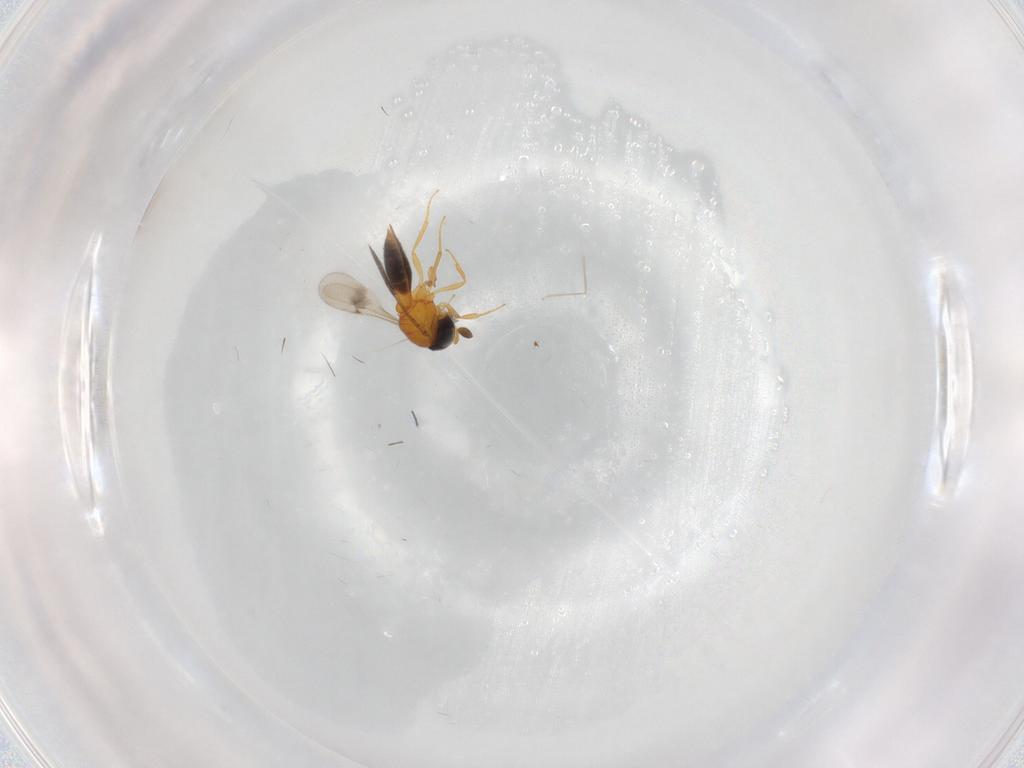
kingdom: Animalia
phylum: Arthropoda
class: Insecta
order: Hymenoptera
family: Scelionidae
